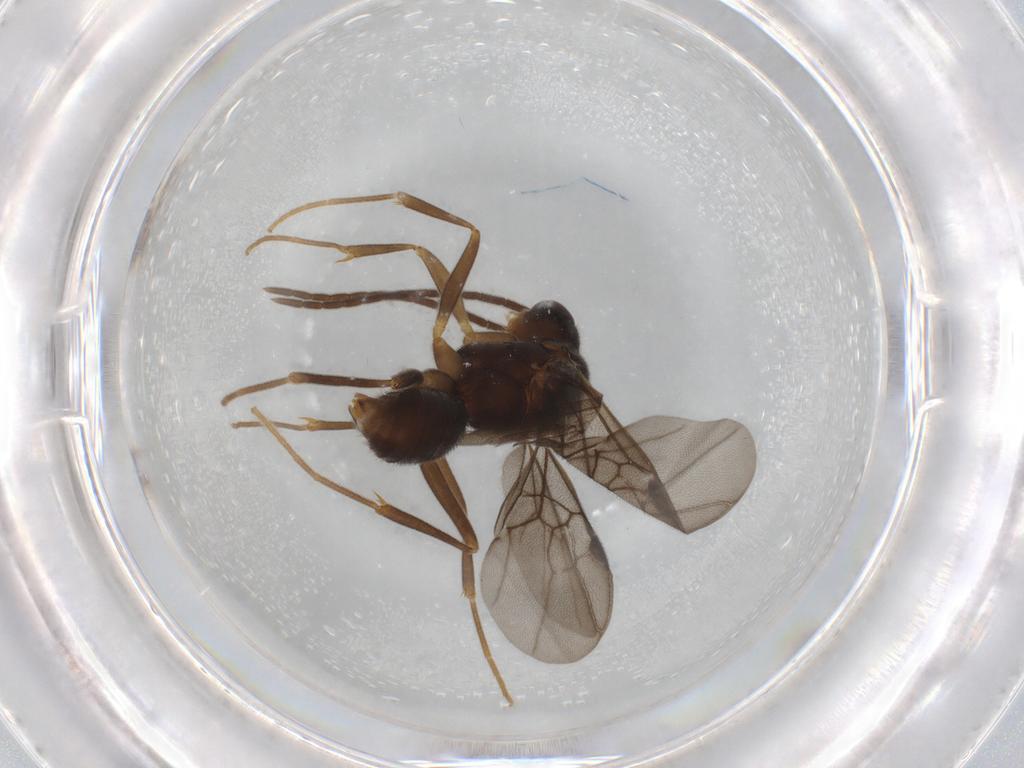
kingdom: Animalia
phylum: Arthropoda
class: Insecta
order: Hymenoptera
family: Formicidae
